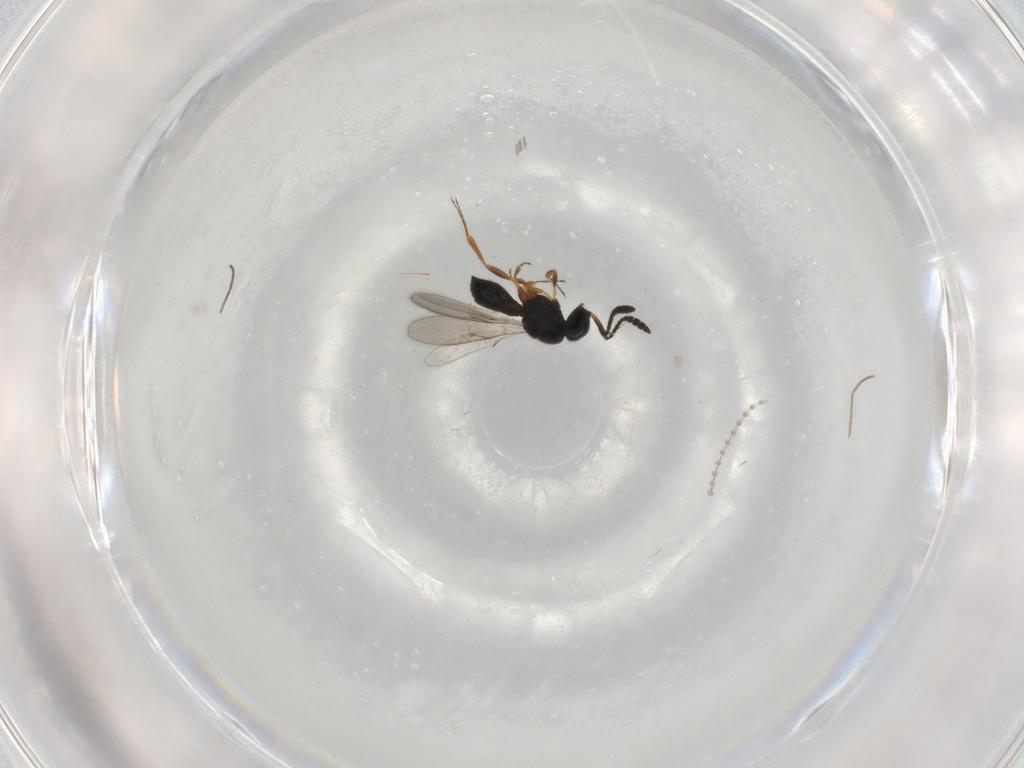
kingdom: Animalia
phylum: Arthropoda
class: Insecta
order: Hymenoptera
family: Scelionidae
